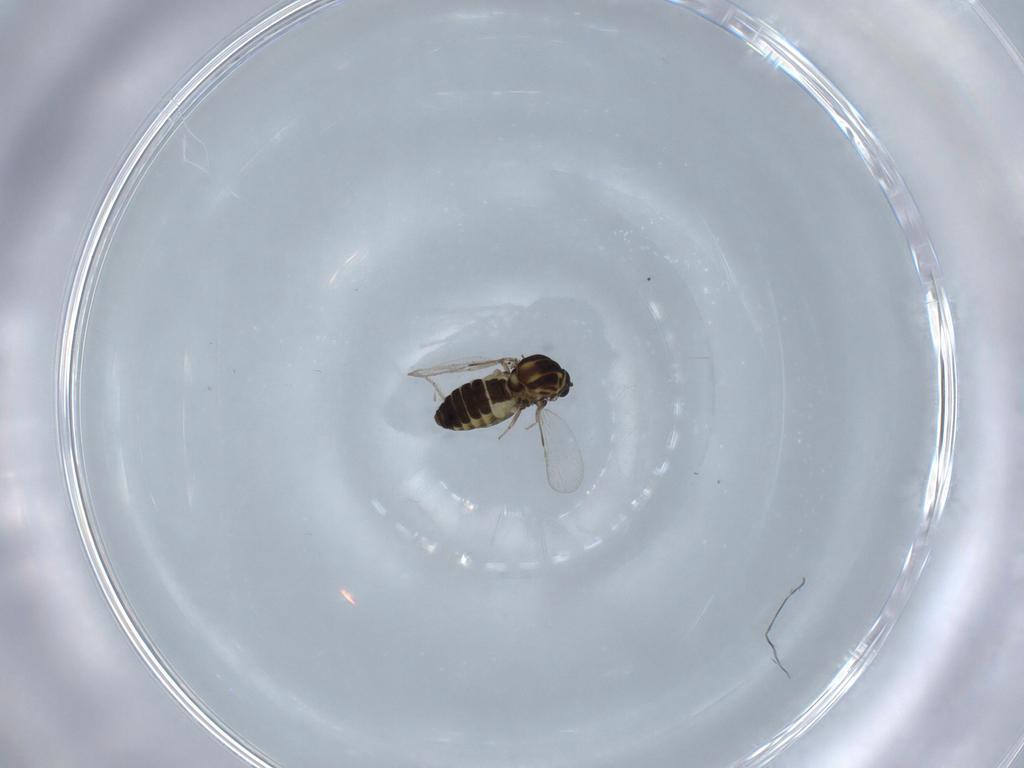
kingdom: Animalia
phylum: Arthropoda
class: Insecta
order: Diptera
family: Ceratopogonidae
